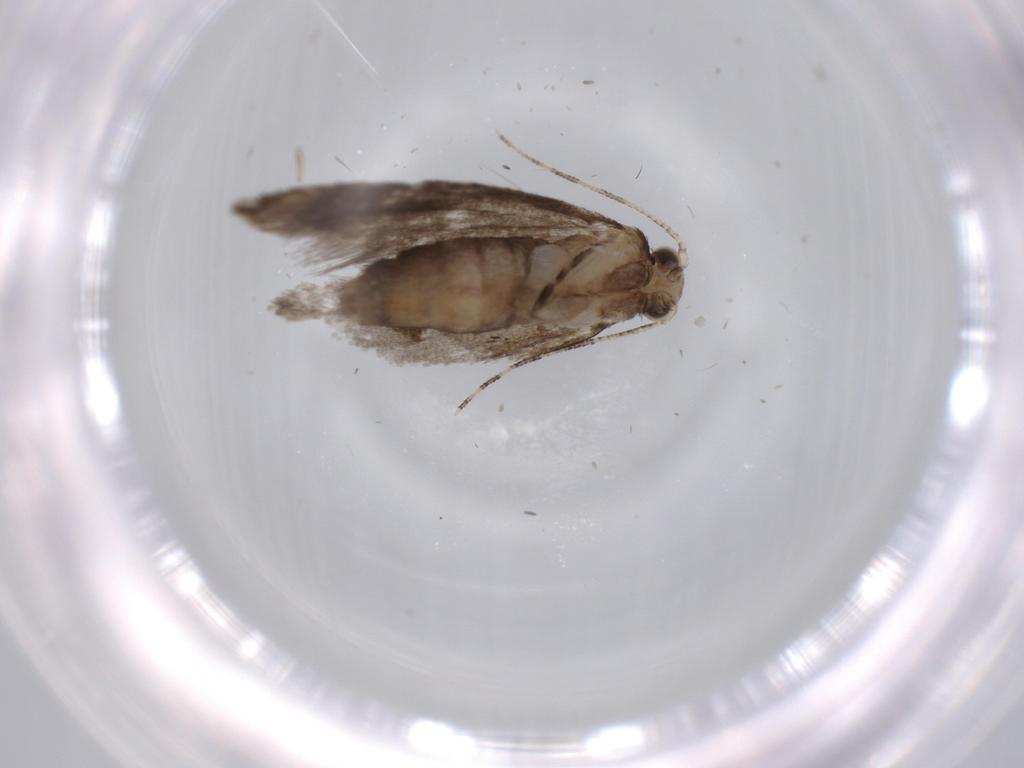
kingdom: Animalia
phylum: Arthropoda
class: Insecta
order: Lepidoptera
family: Tineidae
